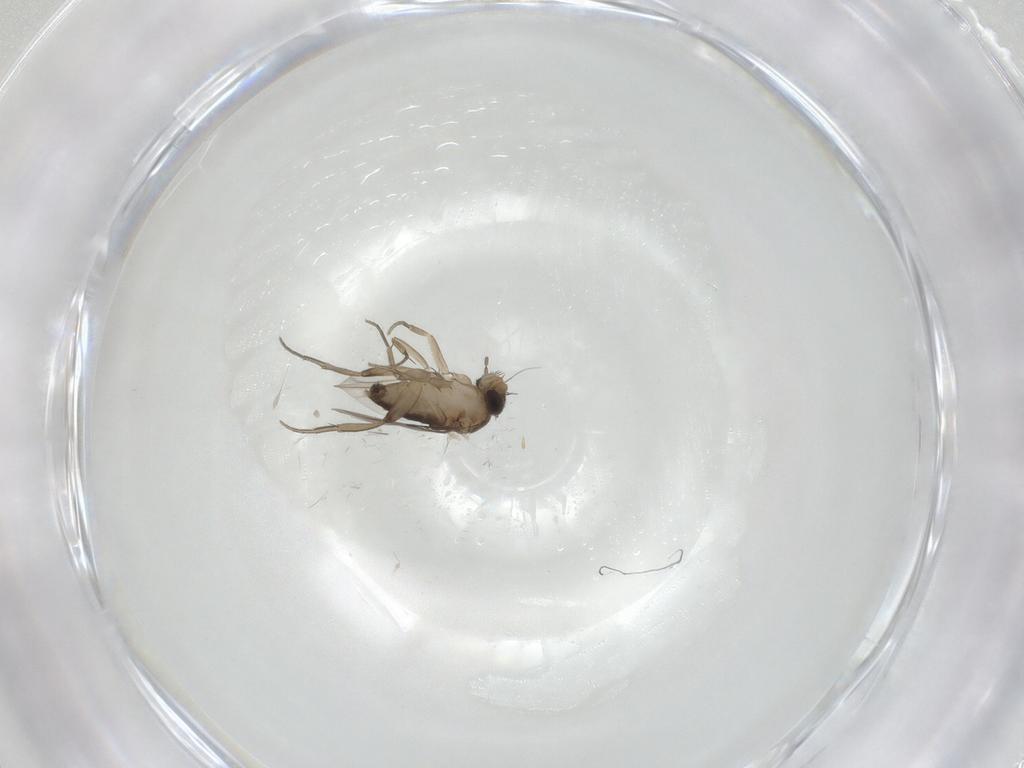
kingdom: Animalia
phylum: Arthropoda
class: Insecta
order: Diptera
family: Phoridae
